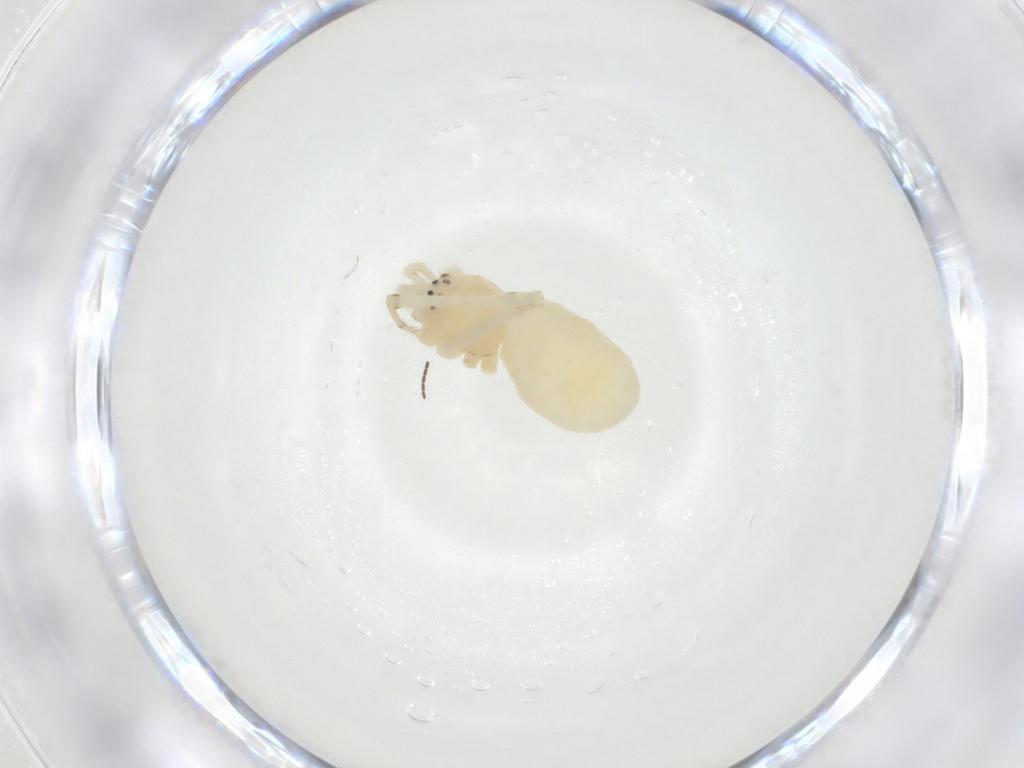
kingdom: Animalia
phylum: Arthropoda
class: Arachnida
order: Araneae
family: Theridiidae
